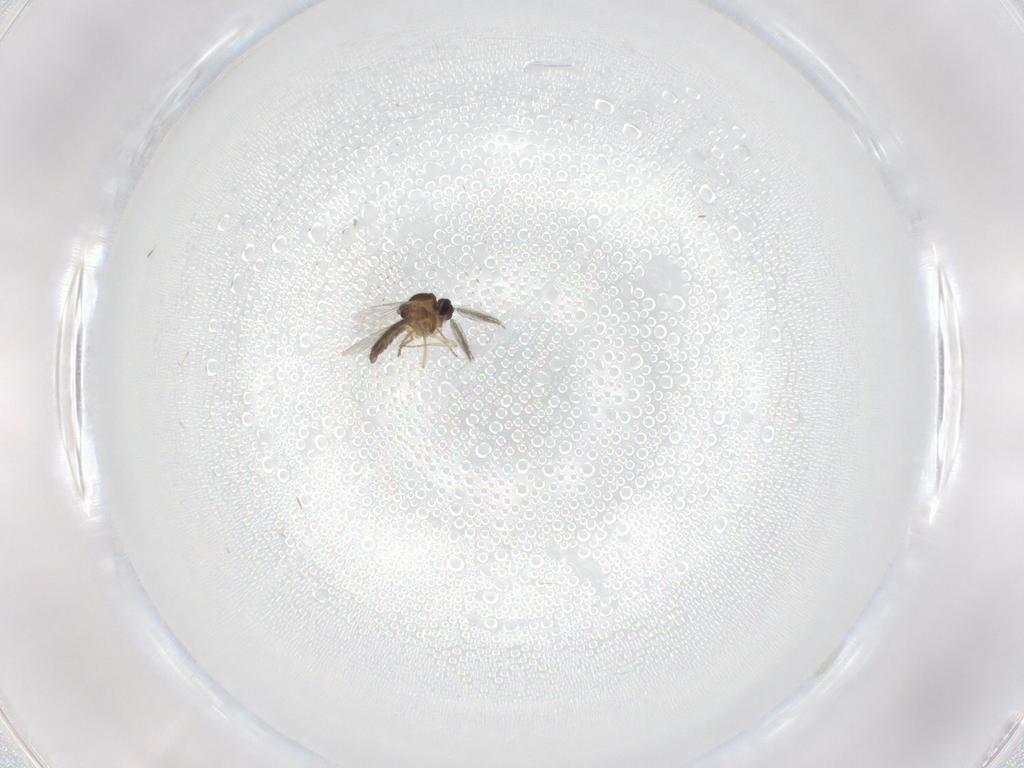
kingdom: Animalia
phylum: Arthropoda
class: Insecta
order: Diptera
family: Ceratopogonidae
